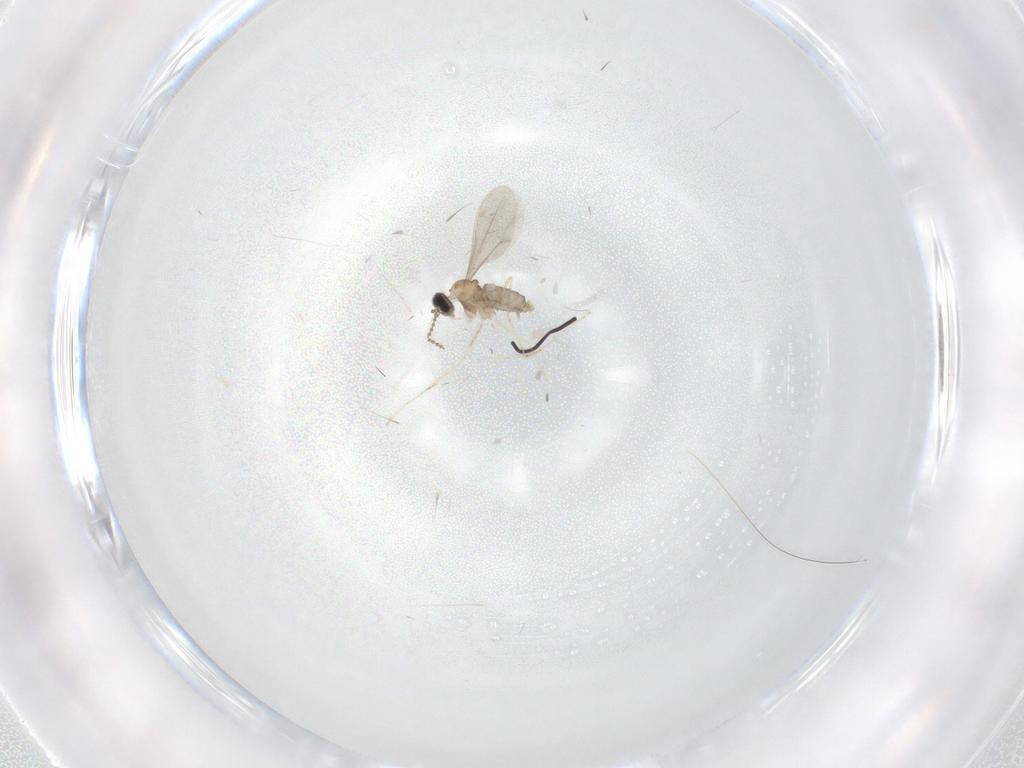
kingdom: Animalia
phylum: Arthropoda
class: Insecta
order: Diptera
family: Cecidomyiidae
